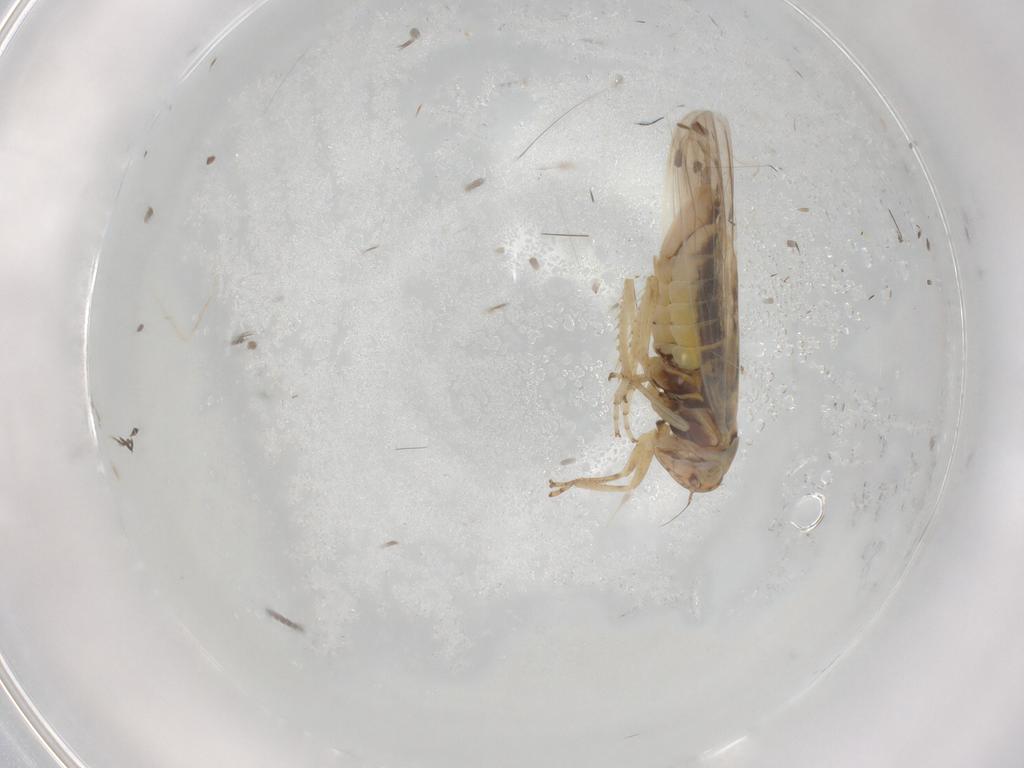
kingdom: Animalia
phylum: Arthropoda
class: Insecta
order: Hemiptera
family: Cicadellidae
